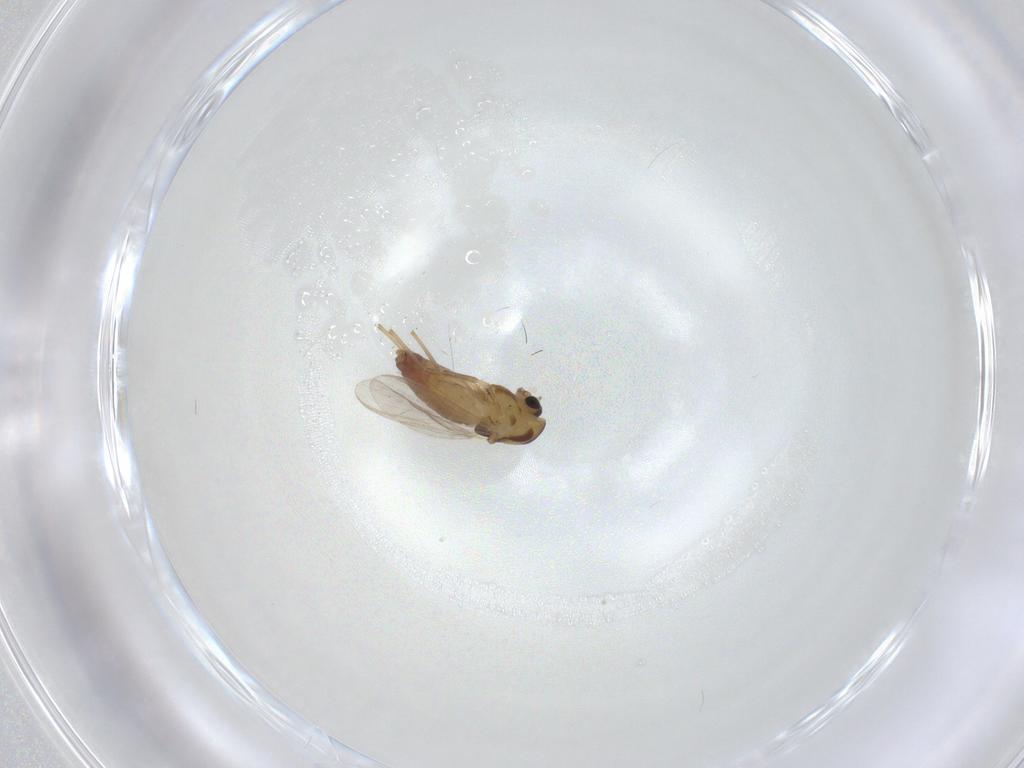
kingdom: Animalia
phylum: Arthropoda
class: Insecta
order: Diptera
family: Chironomidae
